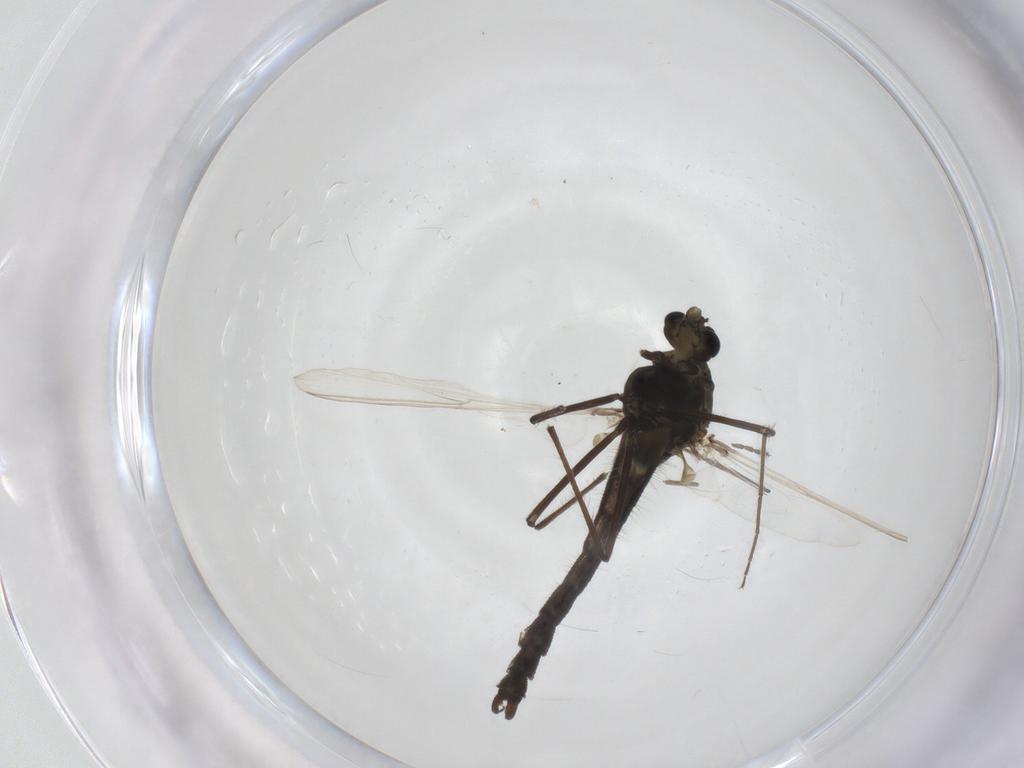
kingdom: Animalia
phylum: Arthropoda
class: Insecta
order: Diptera
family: Chironomidae
